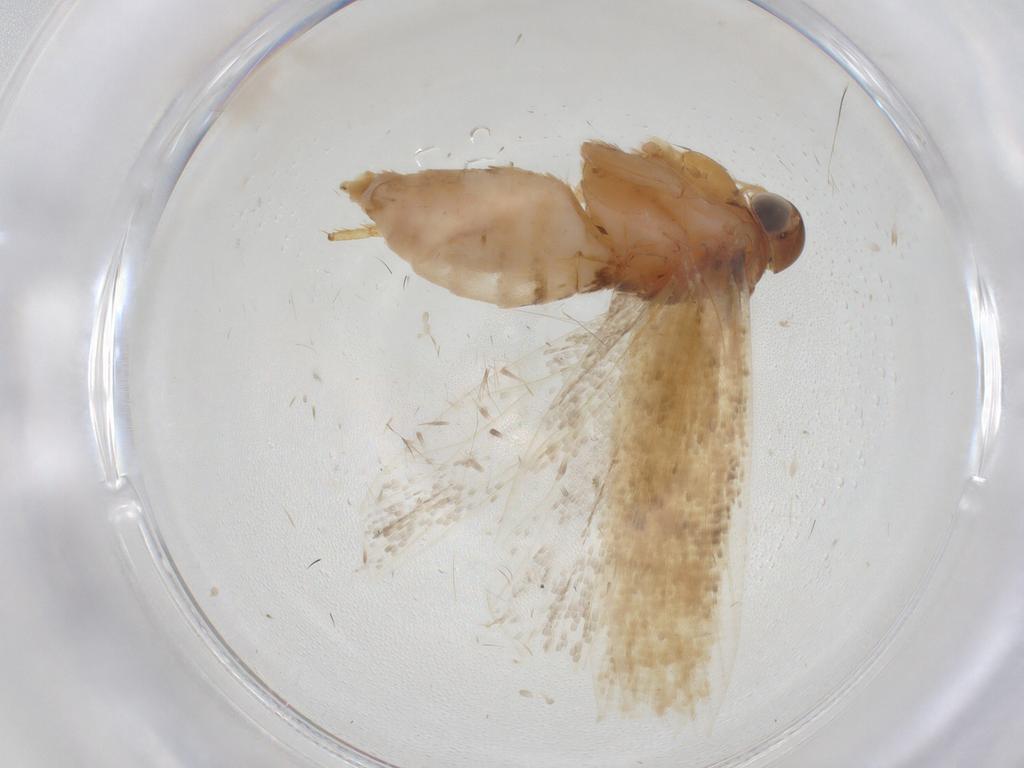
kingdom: Animalia
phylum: Arthropoda
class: Insecta
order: Lepidoptera
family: Gelechiidae
